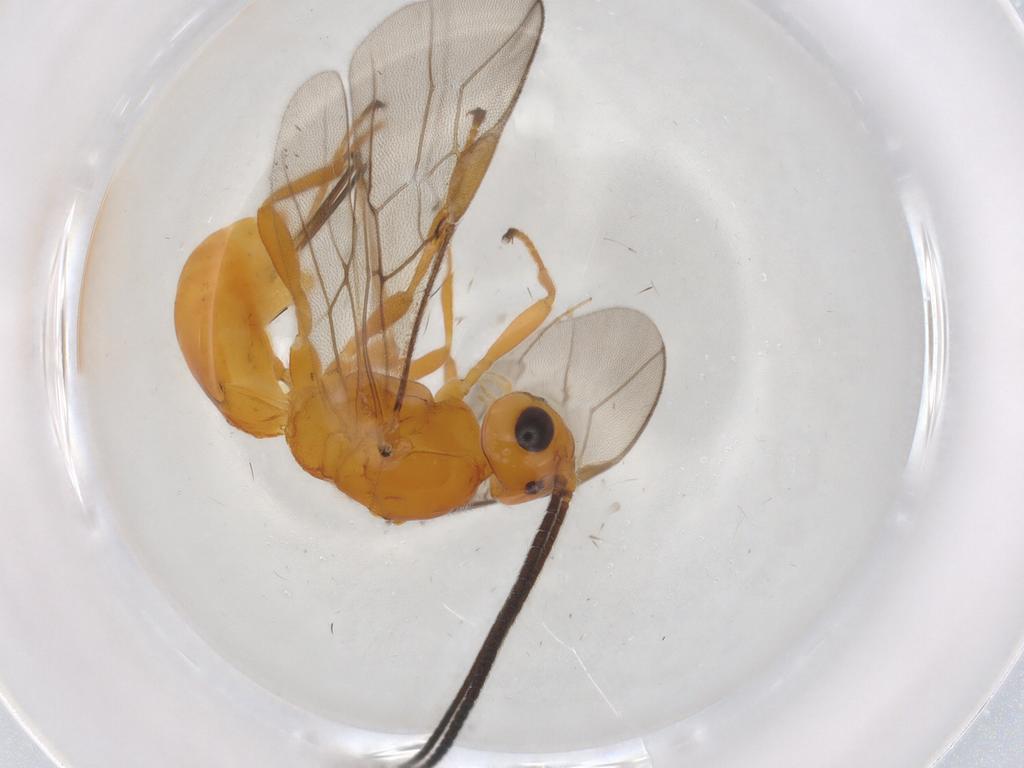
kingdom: Animalia
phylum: Arthropoda
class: Insecta
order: Hymenoptera
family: Braconidae
